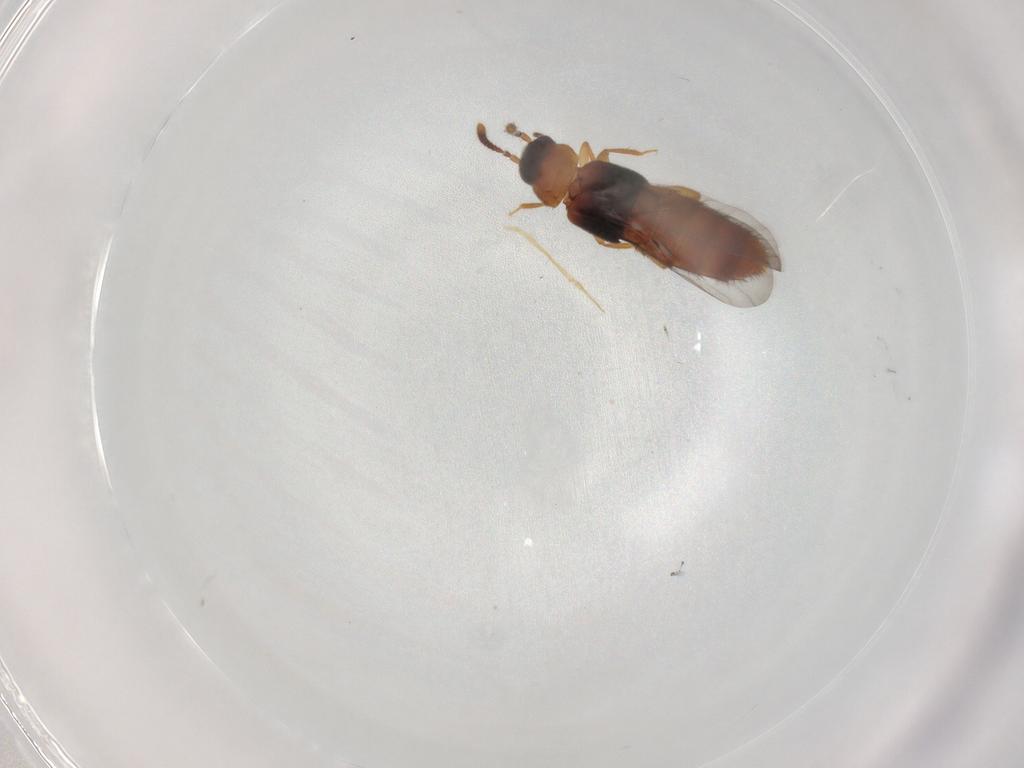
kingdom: Animalia
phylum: Arthropoda
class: Insecta
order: Coleoptera
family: Staphylinidae
